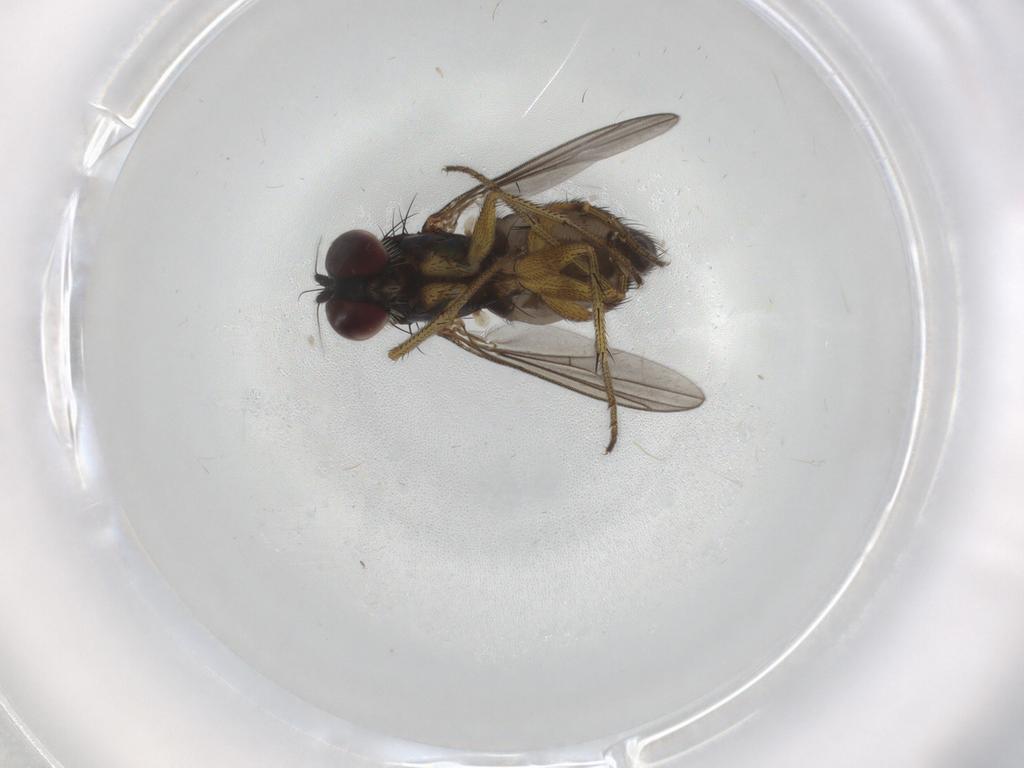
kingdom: Animalia
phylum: Arthropoda
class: Insecta
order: Diptera
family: Dolichopodidae
